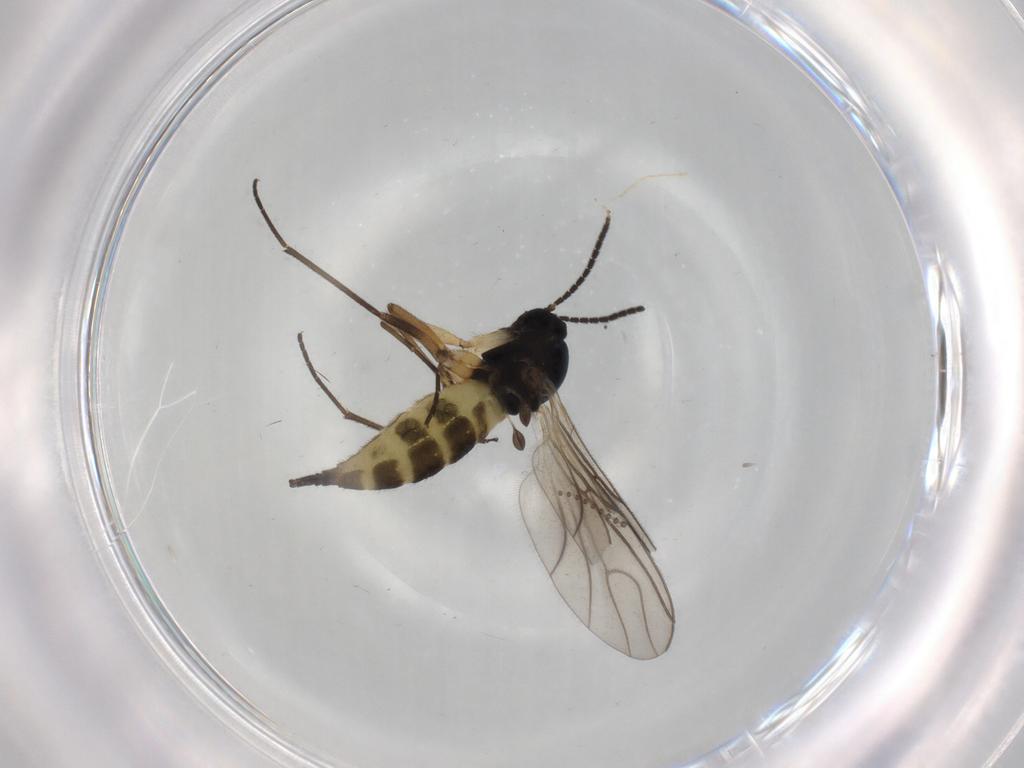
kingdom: Animalia
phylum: Arthropoda
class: Insecta
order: Diptera
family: Sciaridae
